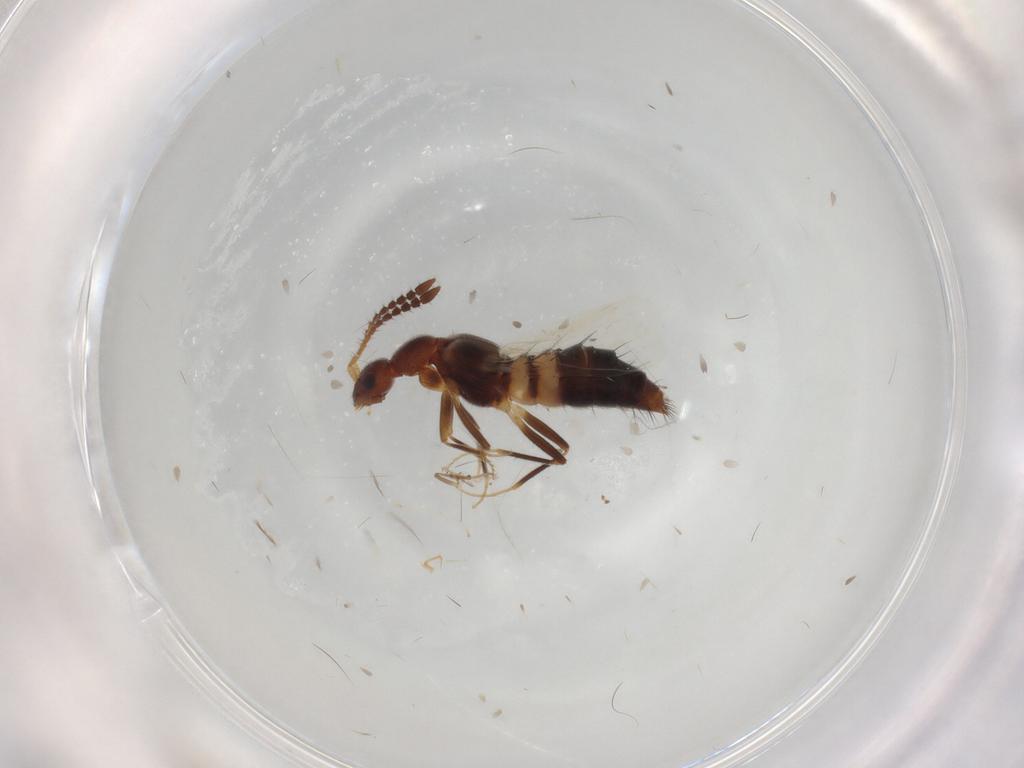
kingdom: Animalia
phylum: Arthropoda
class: Insecta
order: Coleoptera
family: Staphylinidae
